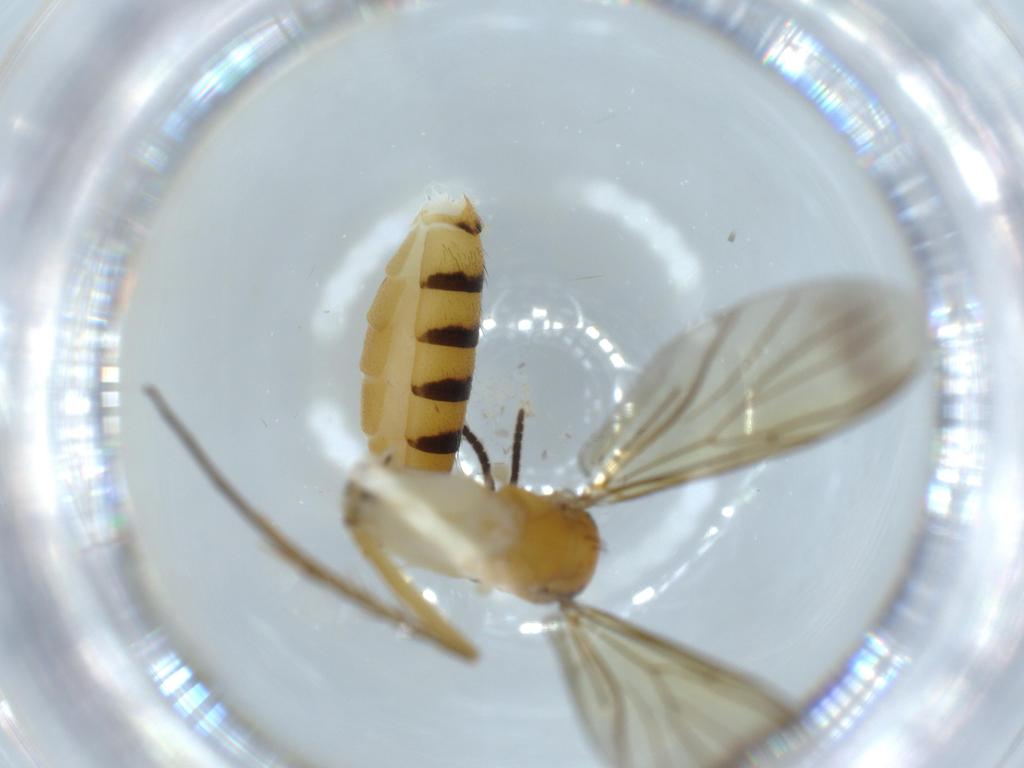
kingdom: Animalia
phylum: Arthropoda
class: Insecta
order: Diptera
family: Mycetophilidae
